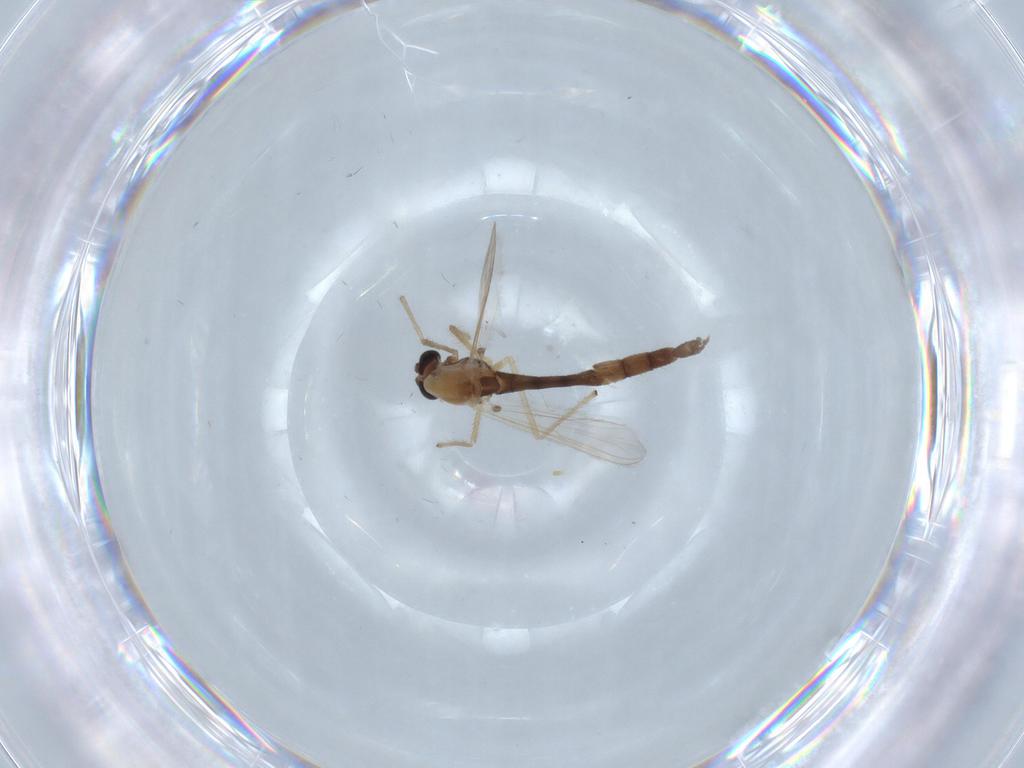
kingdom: Animalia
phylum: Arthropoda
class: Insecta
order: Diptera
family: Chironomidae
